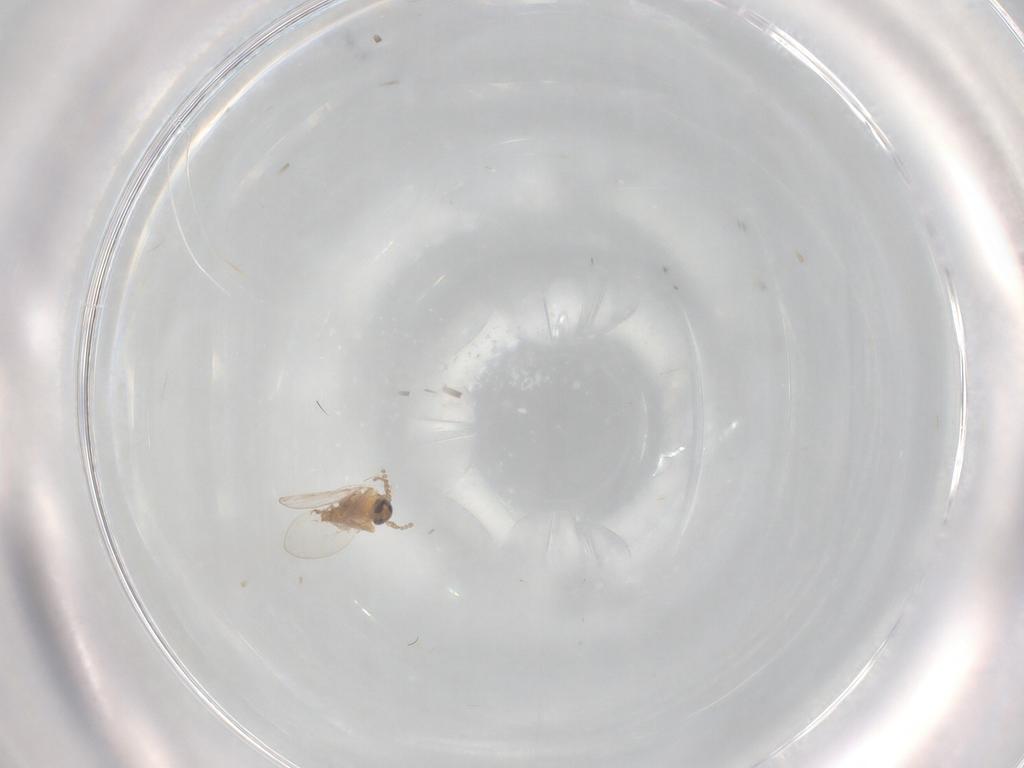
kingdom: Animalia
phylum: Arthropoda
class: Insecta
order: Diptera
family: Psychodidae
